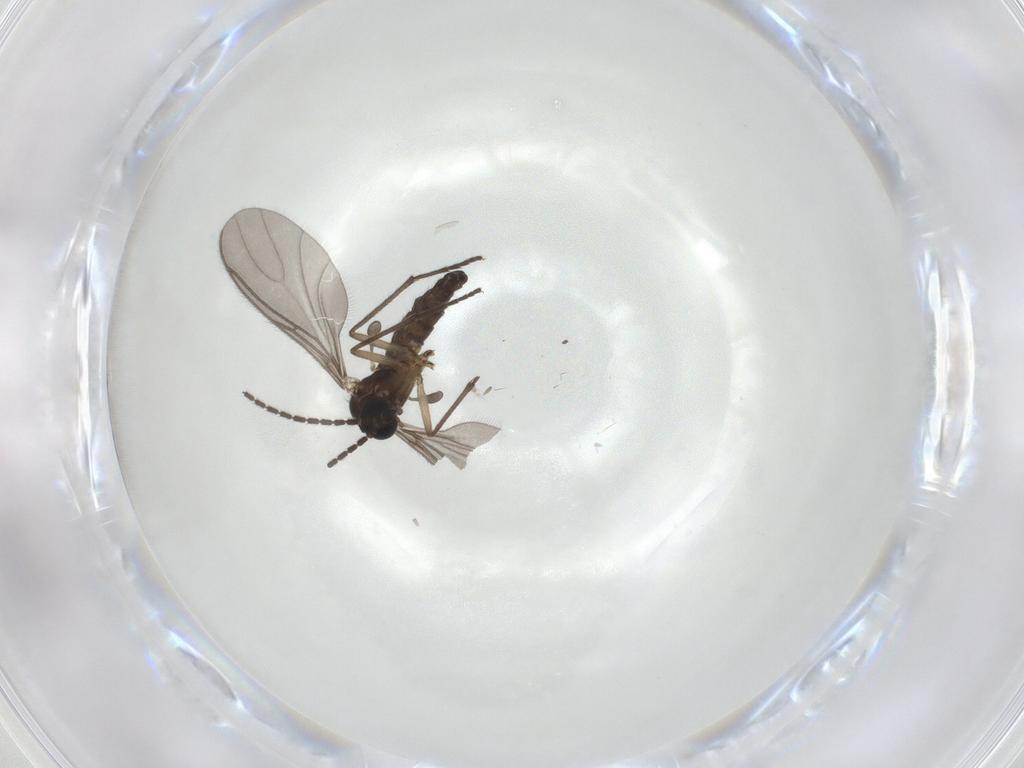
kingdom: Animalia
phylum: Arthropoda
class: Insecta
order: Diptera
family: Sciaridae
